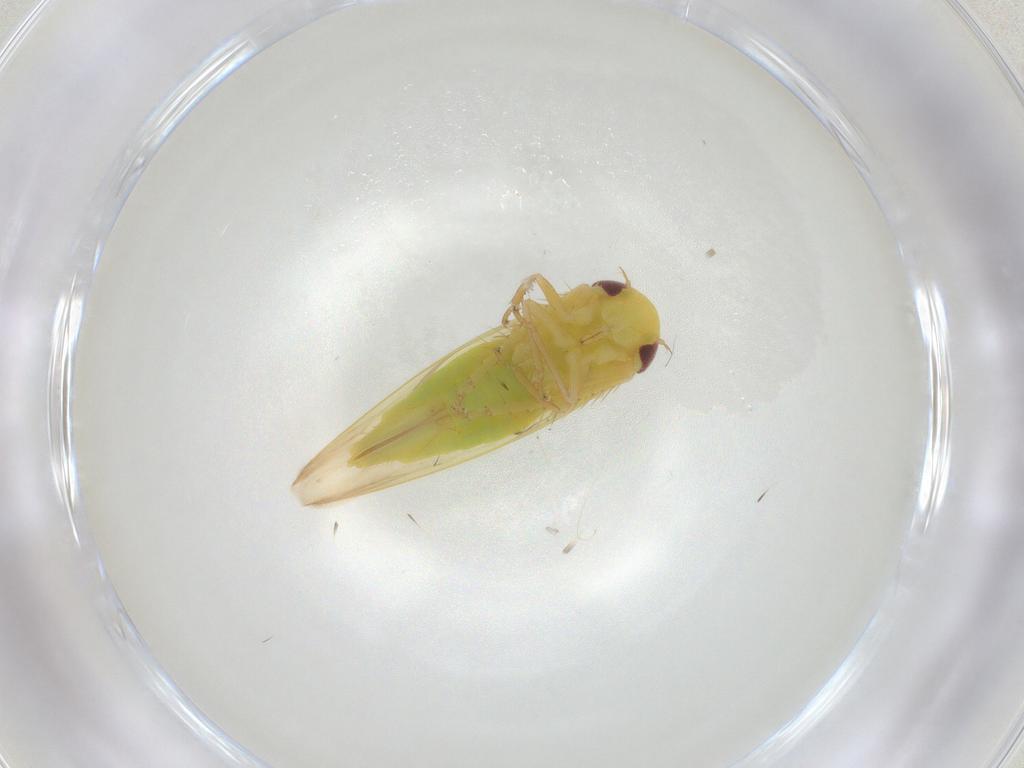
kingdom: Animalia
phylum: Arthropoda
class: Insecta
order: Hemiptera
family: Cicadellidae
